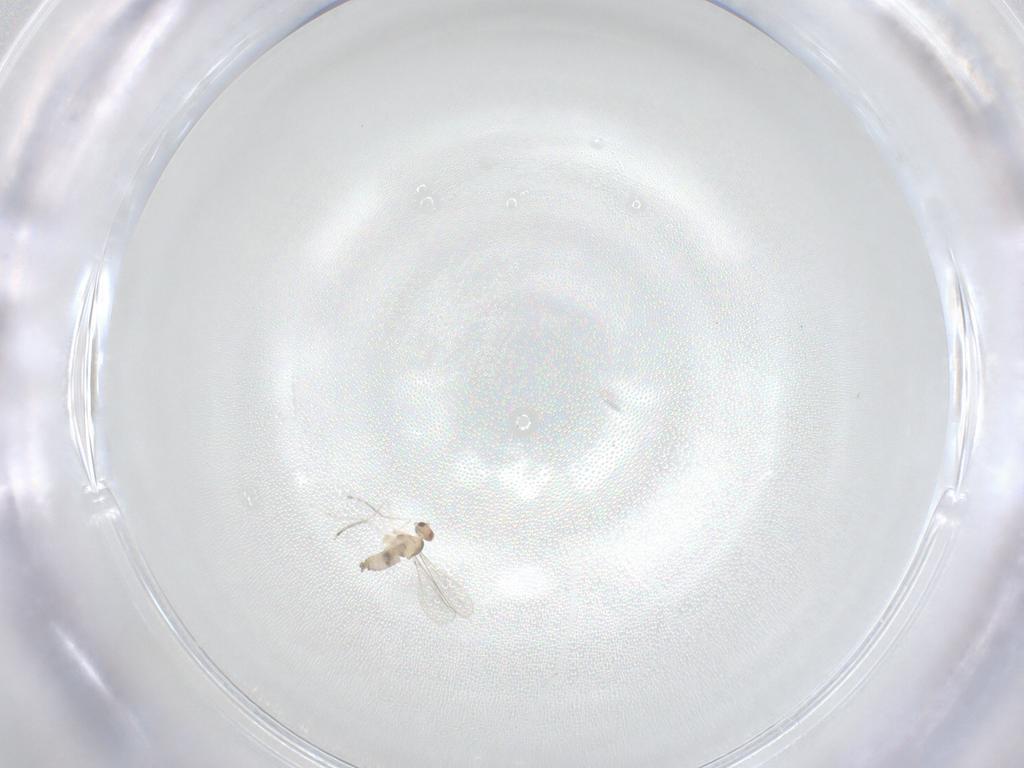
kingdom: Animalia
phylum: Arthropoda
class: Insecta
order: Diptera
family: Cecidomyiidae
